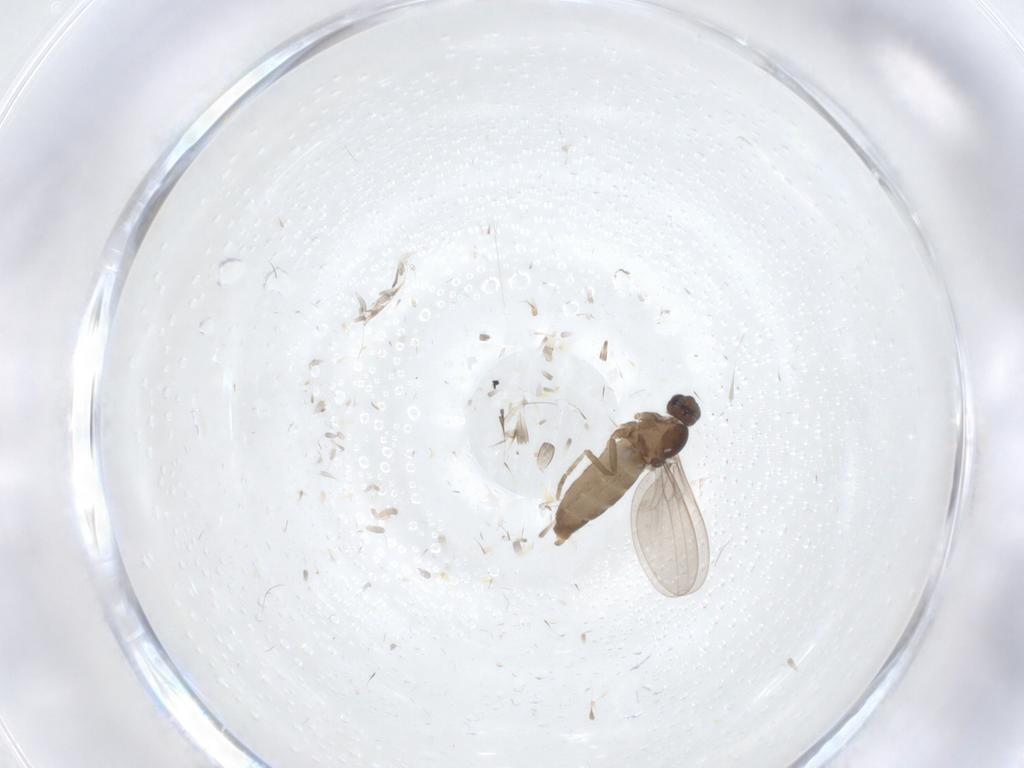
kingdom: Animalia
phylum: Arthropoda
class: Insecta
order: Diptera
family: Cecidomyiidae
